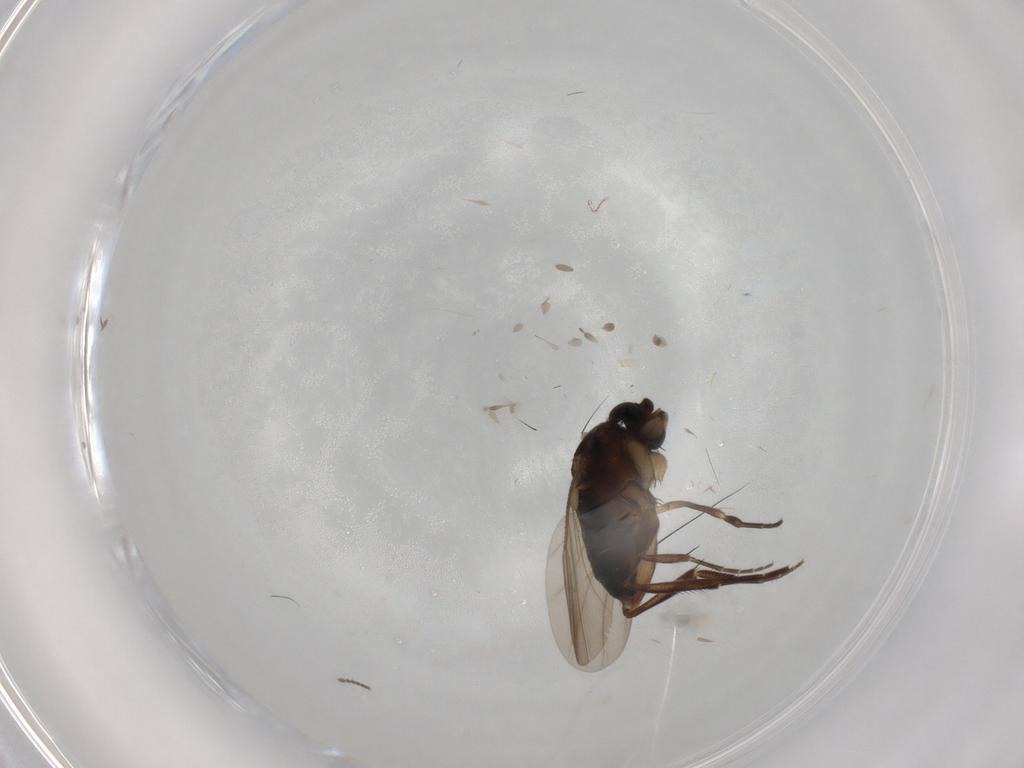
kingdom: Animalia
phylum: Arthropoda
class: Insecta
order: Diptera
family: Phoridae
